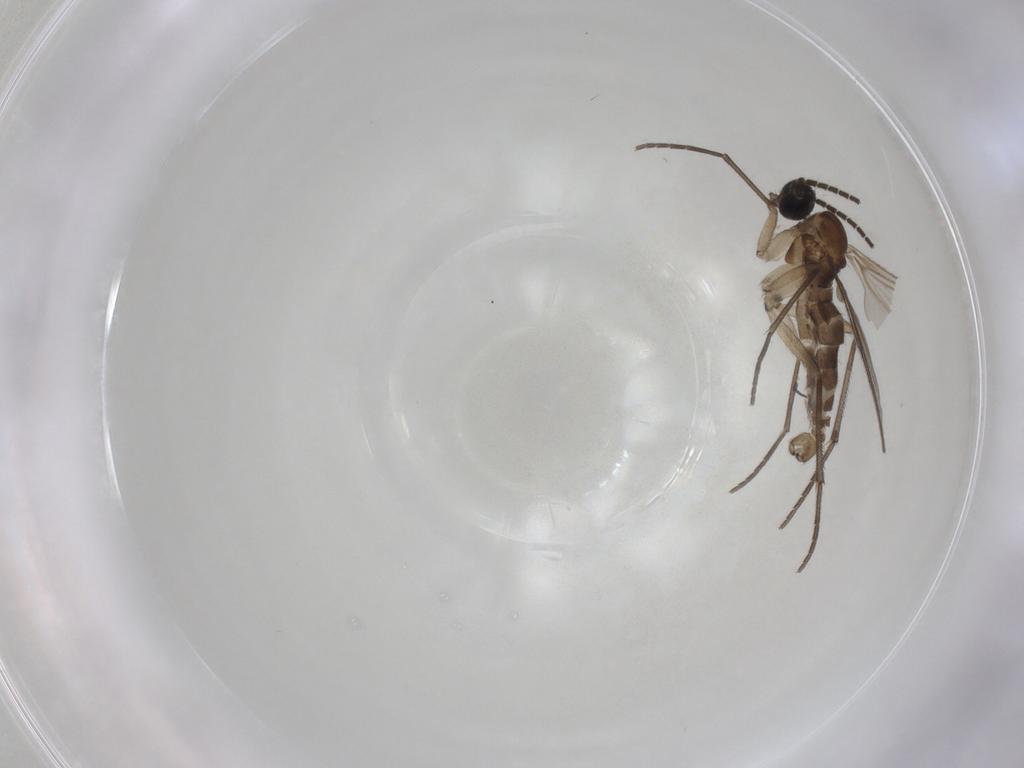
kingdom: Animalia
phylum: Arthropoda
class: Insecta
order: Diptera
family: Sciaridae
